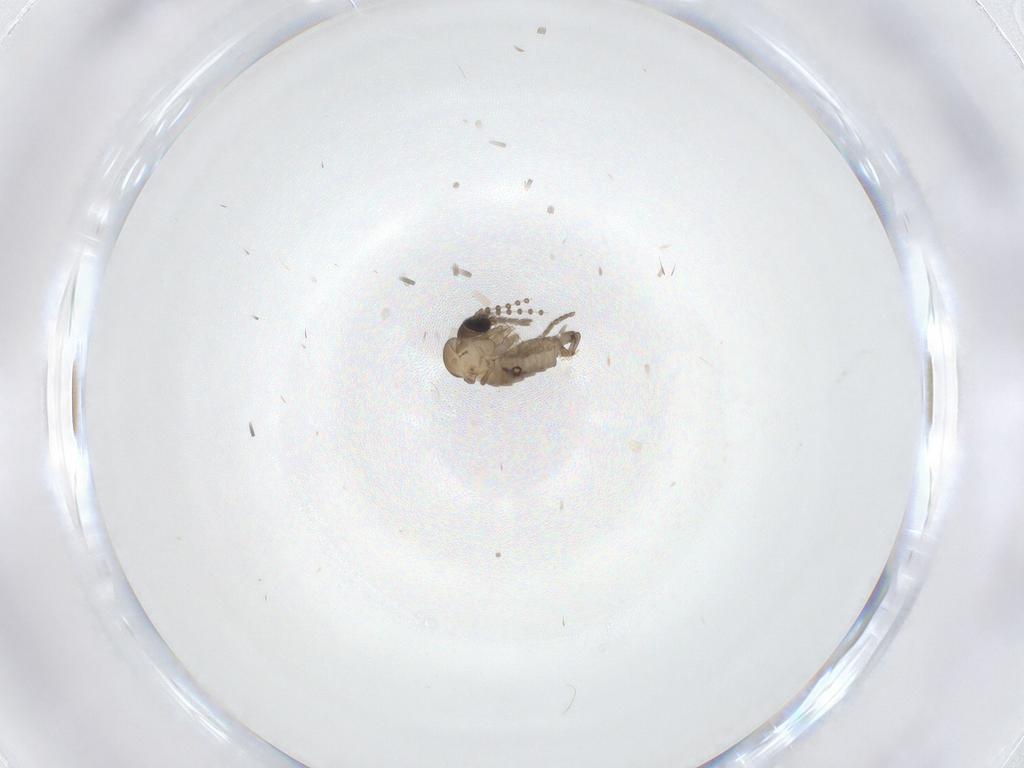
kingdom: Animalia
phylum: Arthropoda
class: Insecta
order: Diptera
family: Psychodidae
